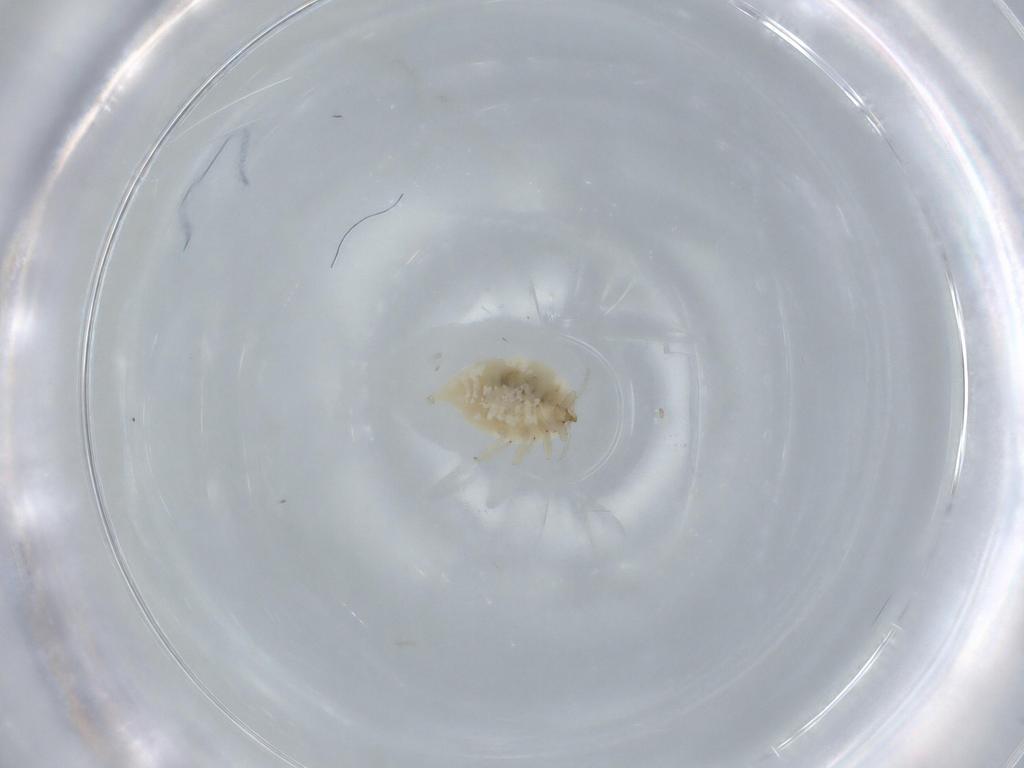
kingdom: Animalia
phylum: Arthropoda
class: Insecta
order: Neuroptera
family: Coniopterygidae
